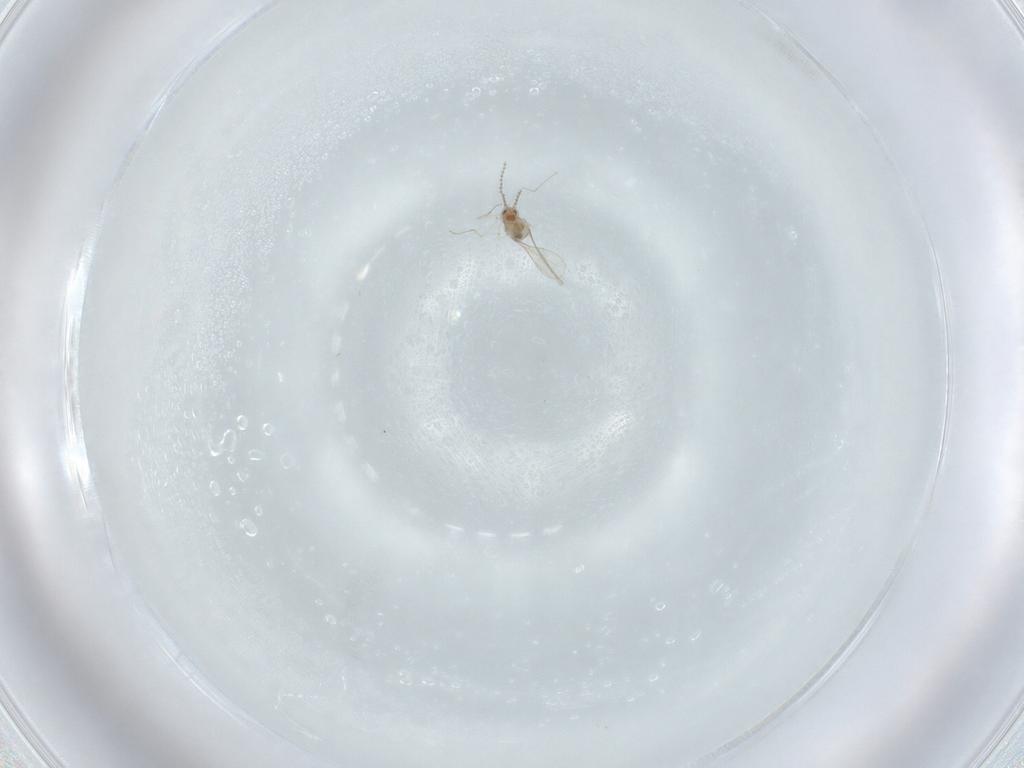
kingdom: Animalia
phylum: Arthropoda
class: Insecta
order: Diptera
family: Cecidomyiidae
